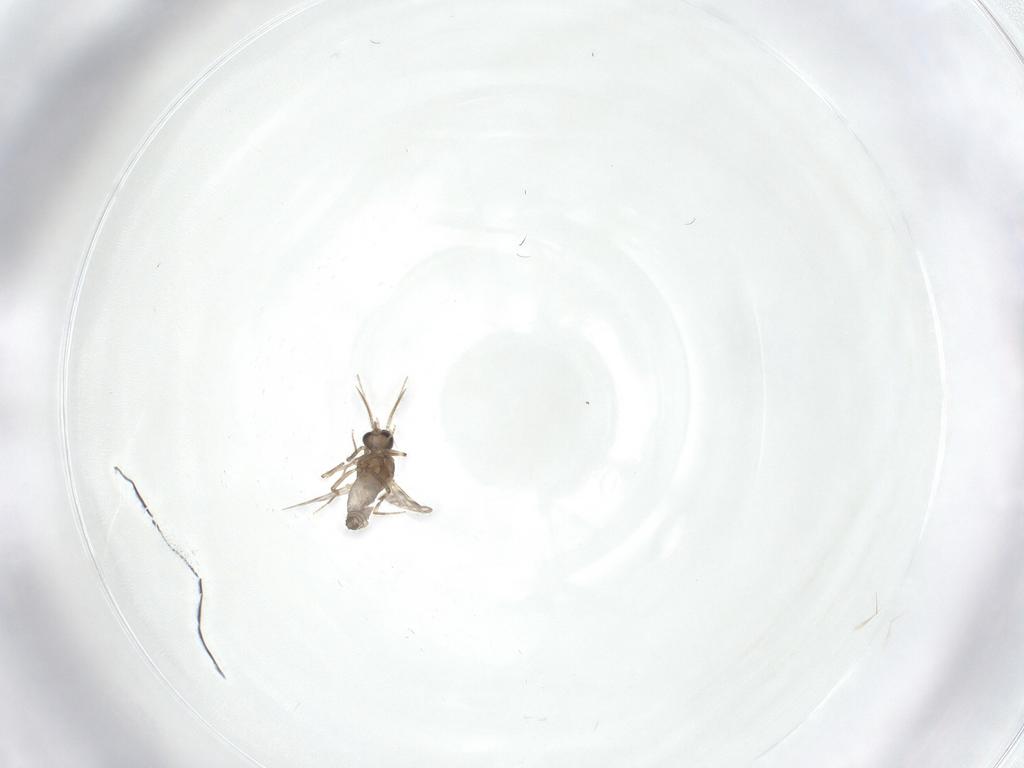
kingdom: Animalia
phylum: Arthropoda
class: Insecta
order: Diptera
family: Ceratopogonidae
